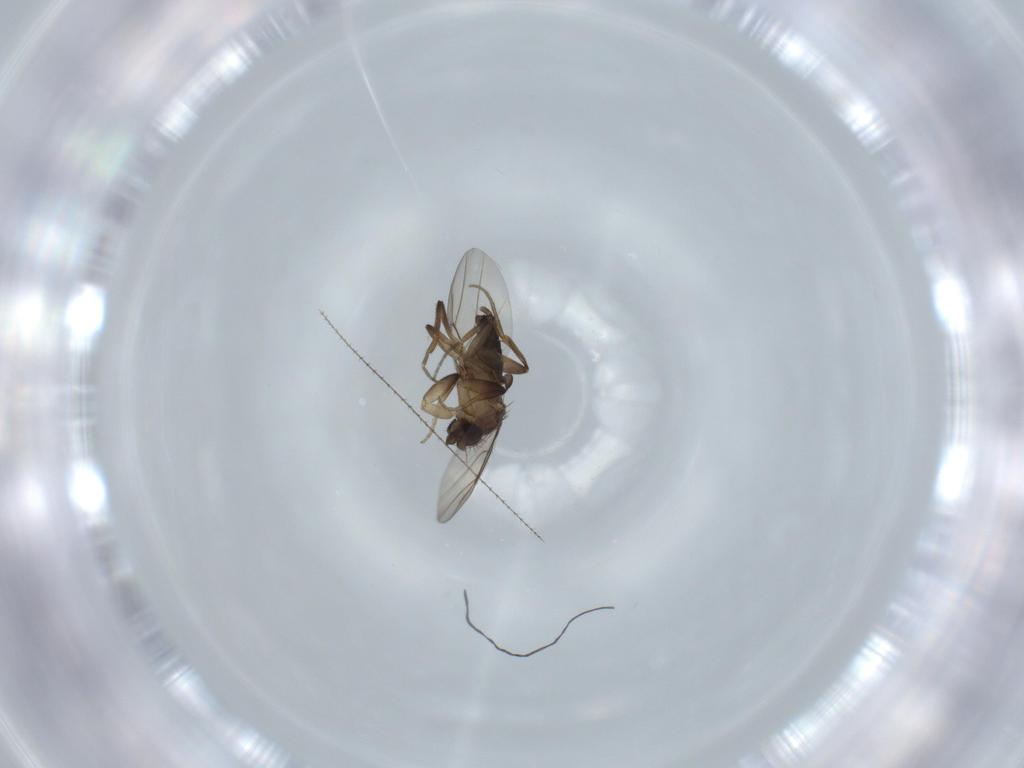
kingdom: Animalia
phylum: Arthropoda
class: Insecta
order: Diptera
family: Phoridae
